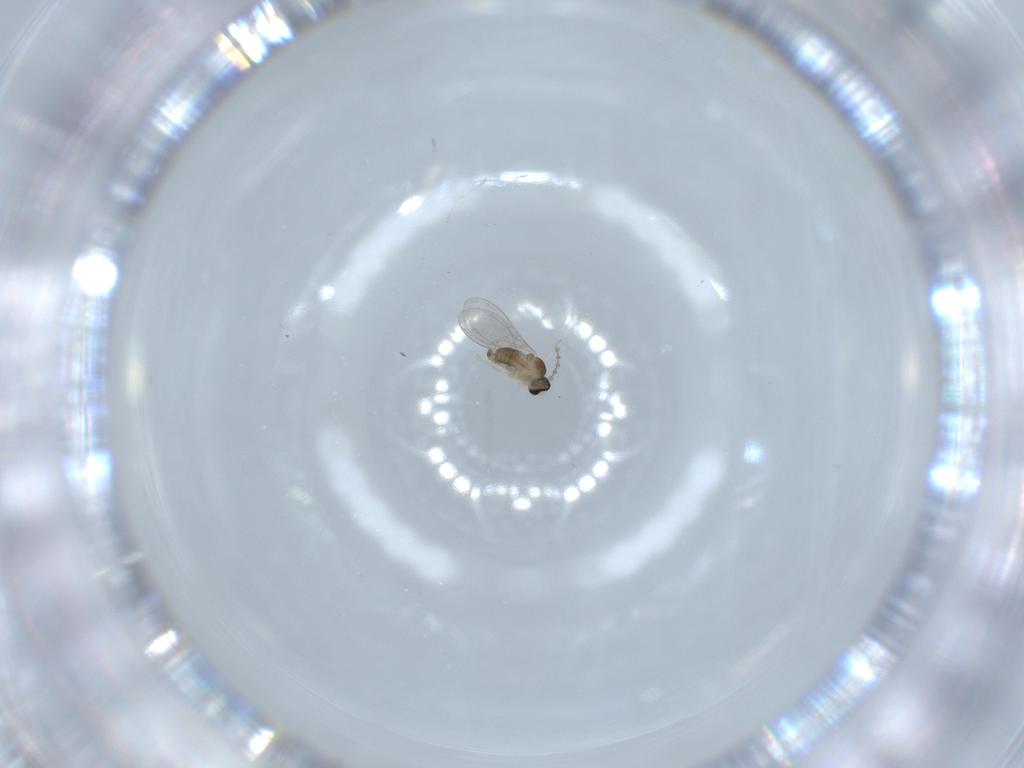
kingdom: Animalia
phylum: Arthropoda
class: Insecta
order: Diptera
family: Cecidomyiidae
